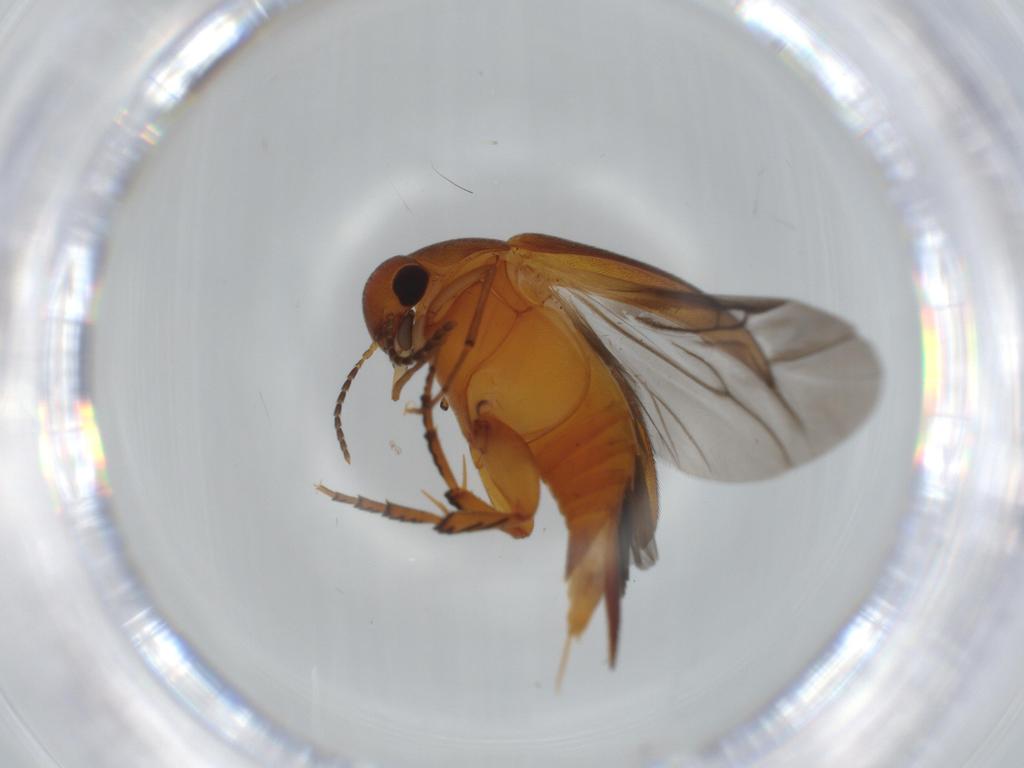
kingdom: Animalia
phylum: Arthropoda
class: Insecta
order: Coleoptera
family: Mordellidae
